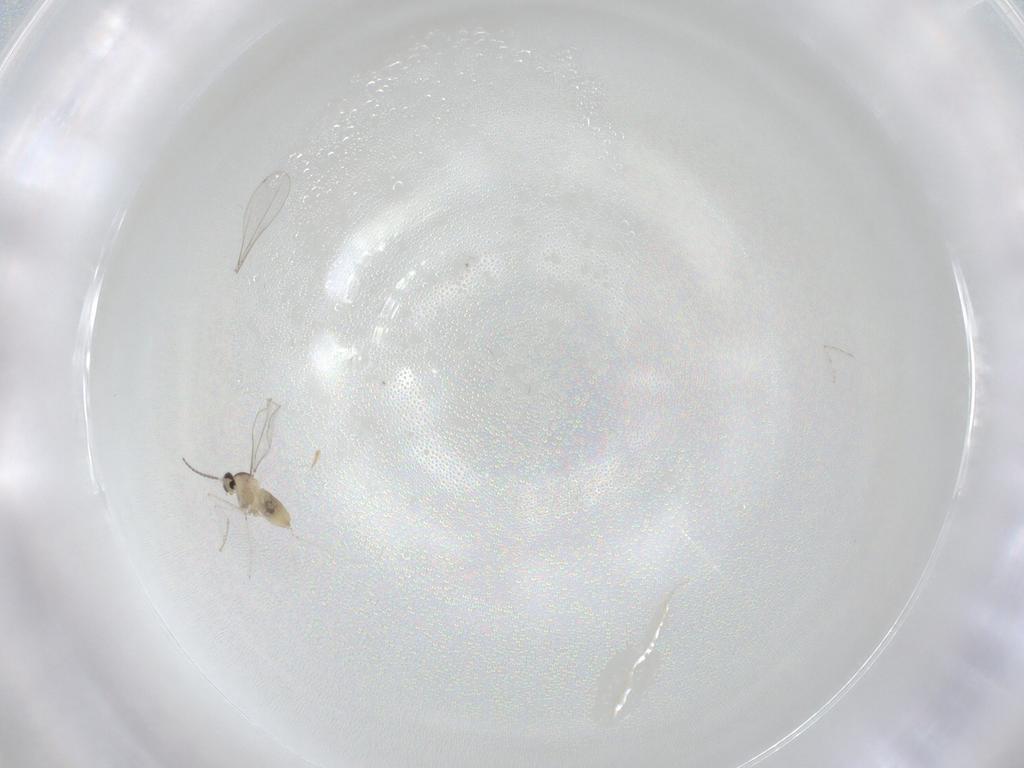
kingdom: Animalia
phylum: Arthropoda
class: Insecta
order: Diptera
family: Cecidomyiidae
